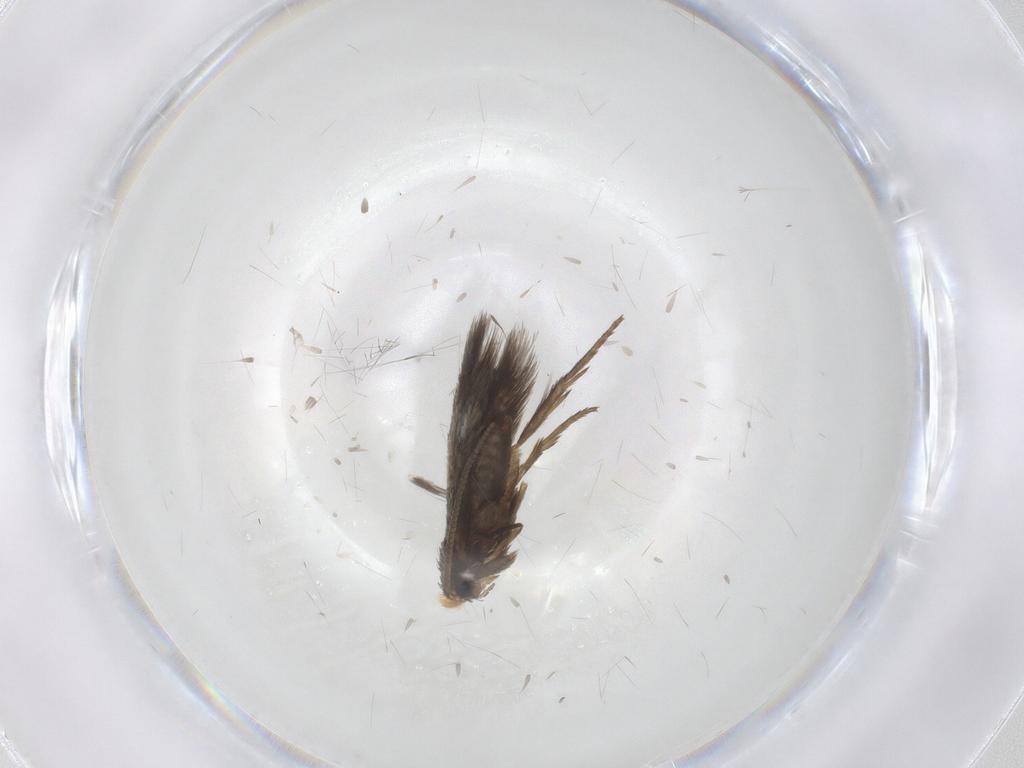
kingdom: Animalia
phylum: Arthropoda
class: Insecta
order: Lepidoptera
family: Nepticulidae
